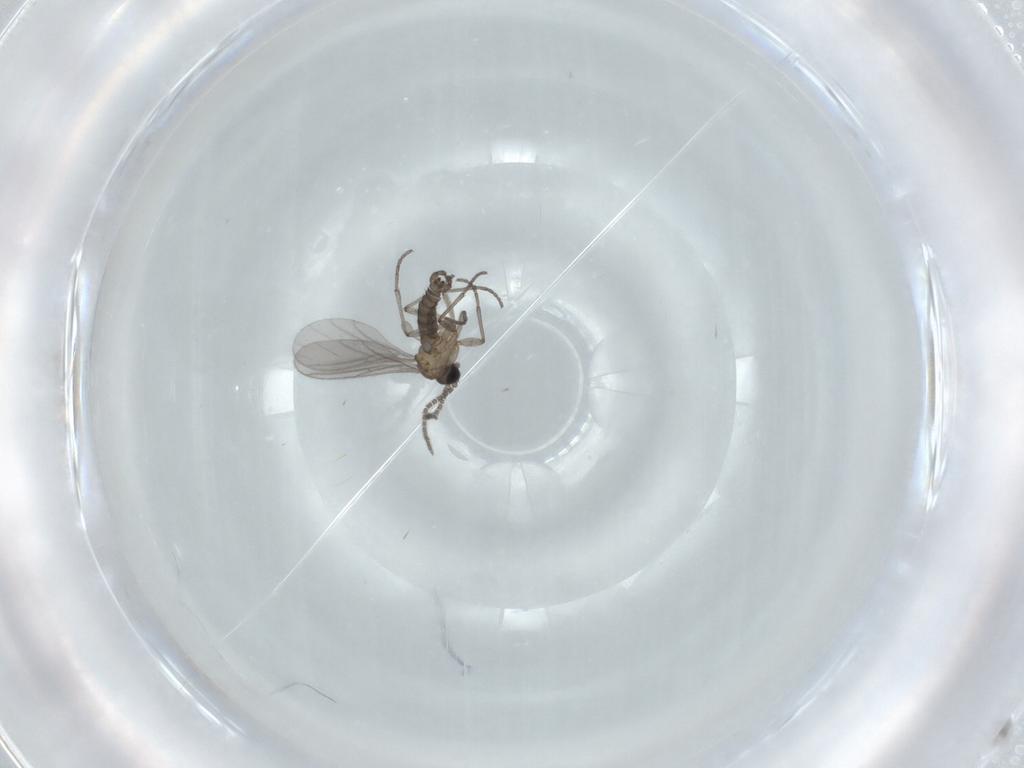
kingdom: Animalia
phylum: Arthropoda
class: Insecta
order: Diptera
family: Sciaridae
